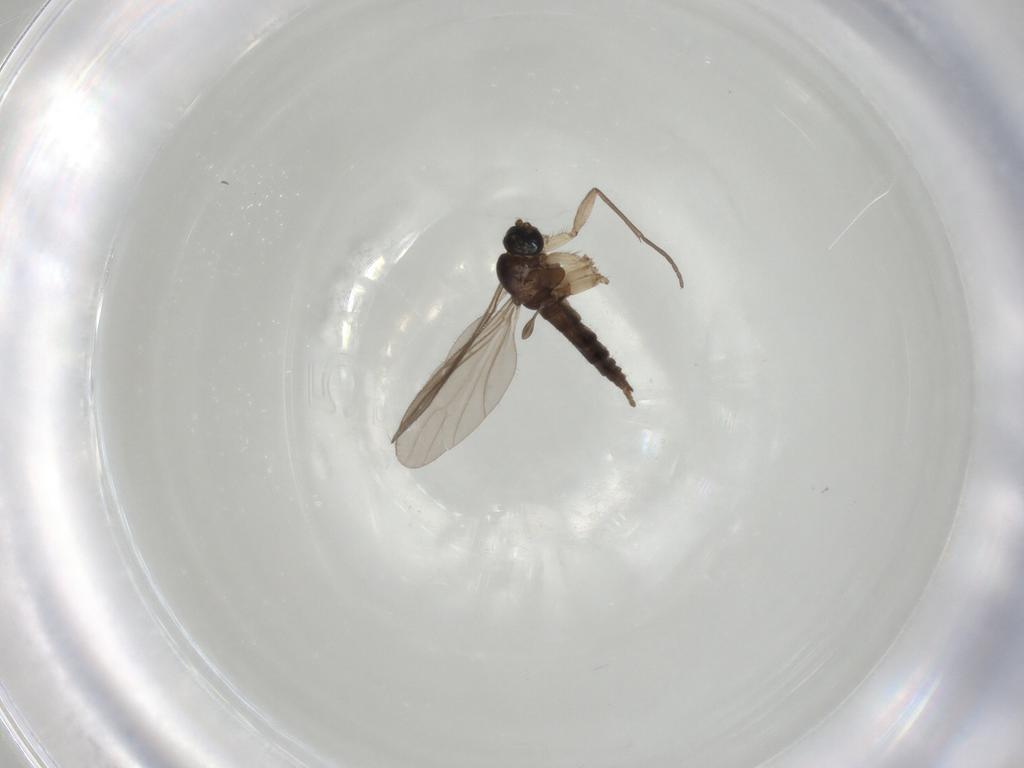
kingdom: Animalia
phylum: Arthropoda
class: Insecta
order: Diptera
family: Sciaridae
